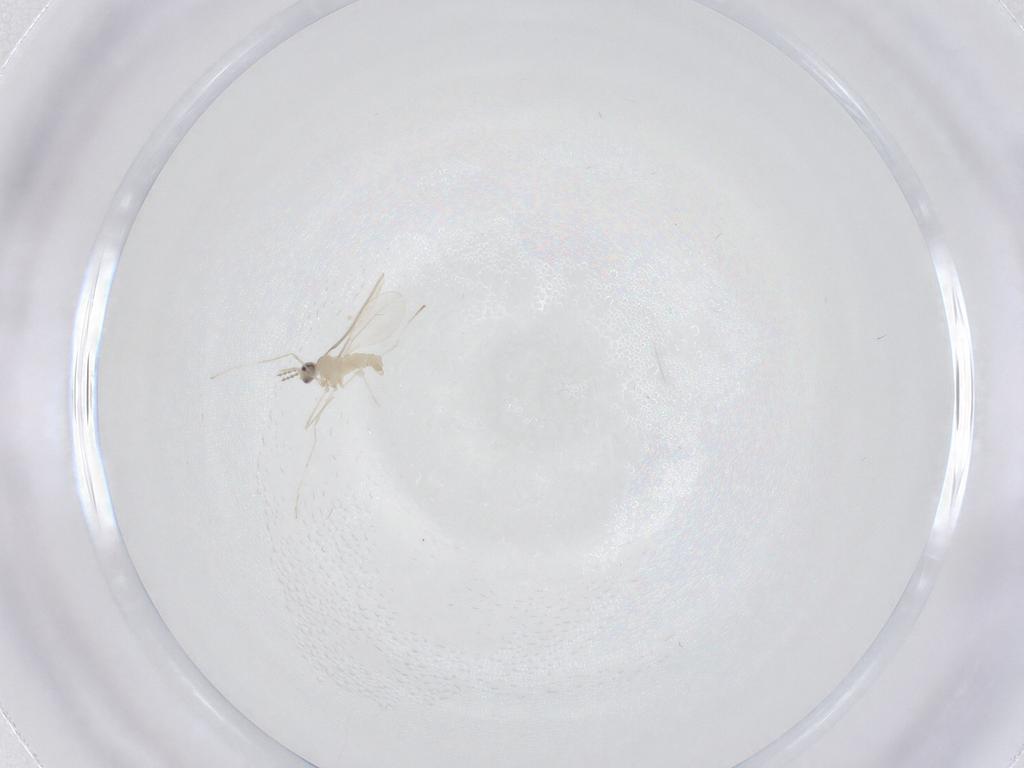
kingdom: Animalia
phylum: Arthropoda
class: Insecta
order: Diptera
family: Cecidomyiidae
